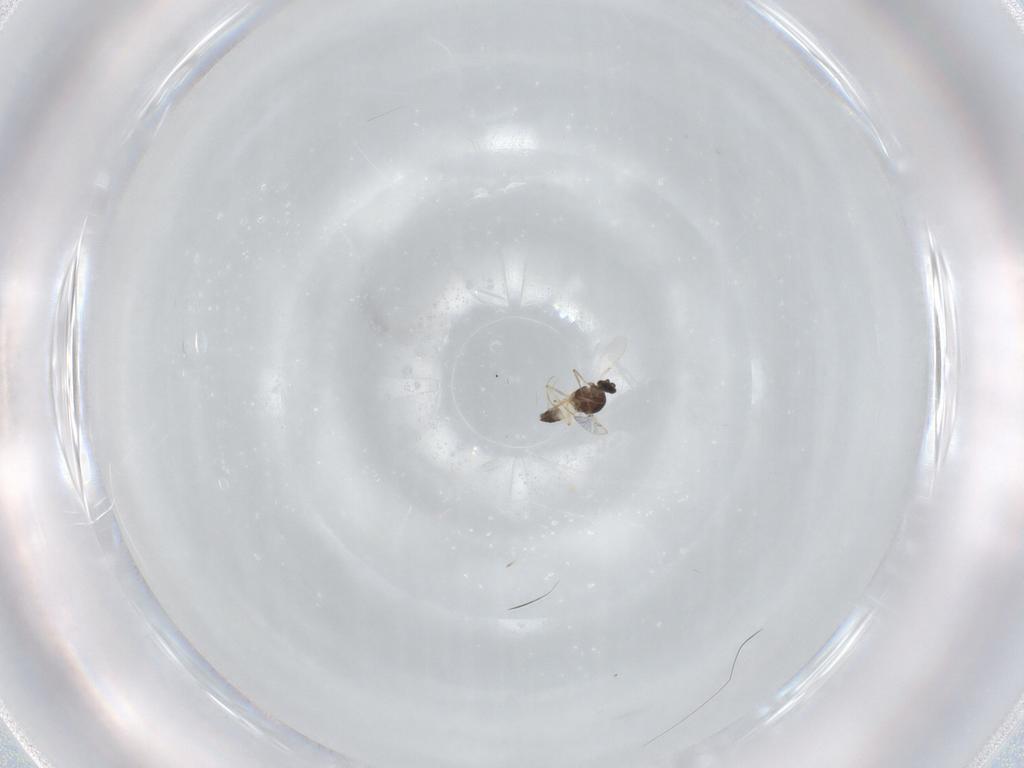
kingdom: Animalia
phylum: Arthropoda
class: Insecta
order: Diptera
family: Ceratopogonidae
